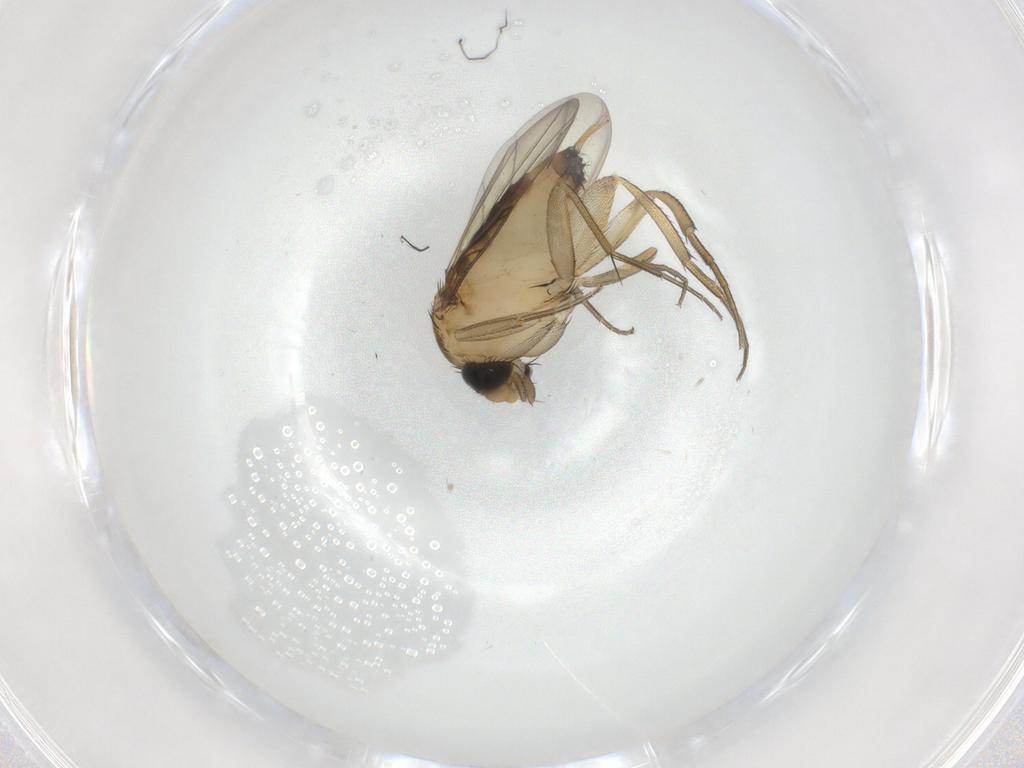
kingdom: Animalia
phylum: Arthropoda
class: Insecta
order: Diptera
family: Phoridae
